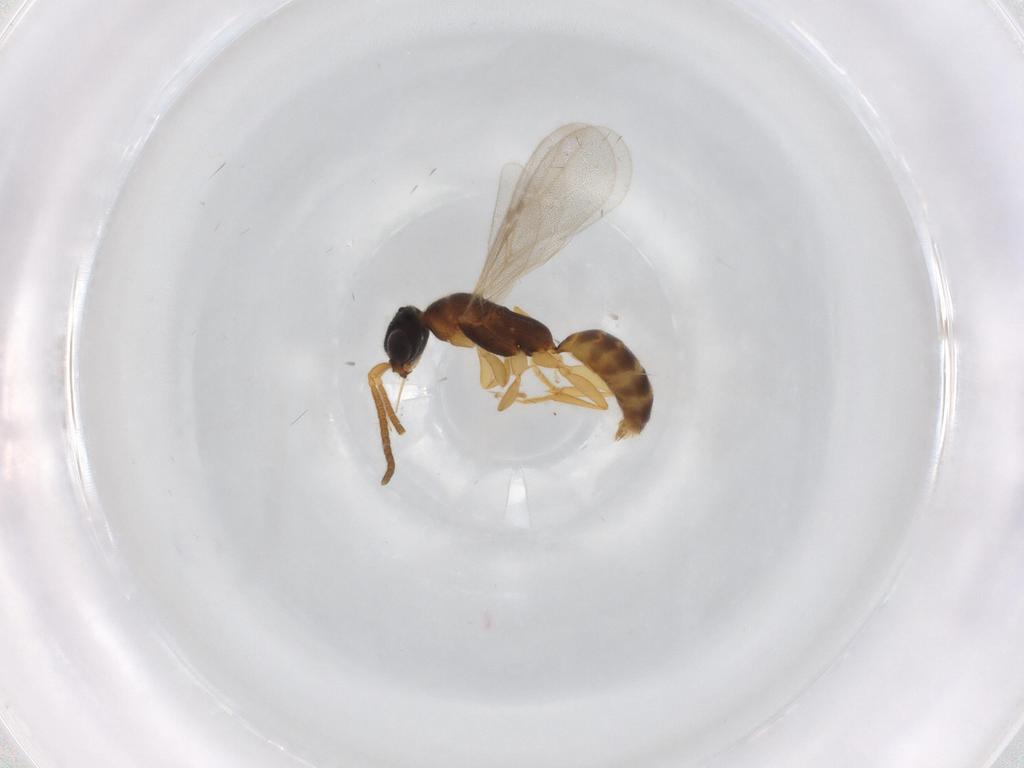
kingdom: Animalia
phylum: Arthropoda
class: Insecta
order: Hymenoptera
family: Bethylidae
